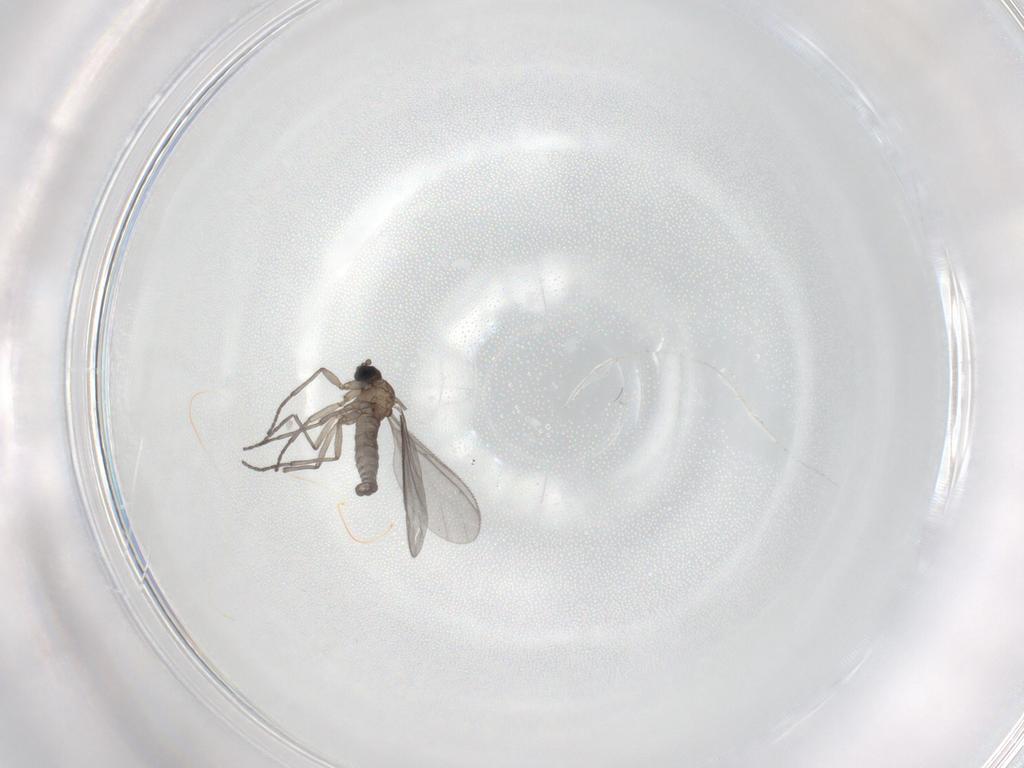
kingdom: Animalia
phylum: Arthropoda
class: Insecta
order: Diptera
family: Sciaridae
